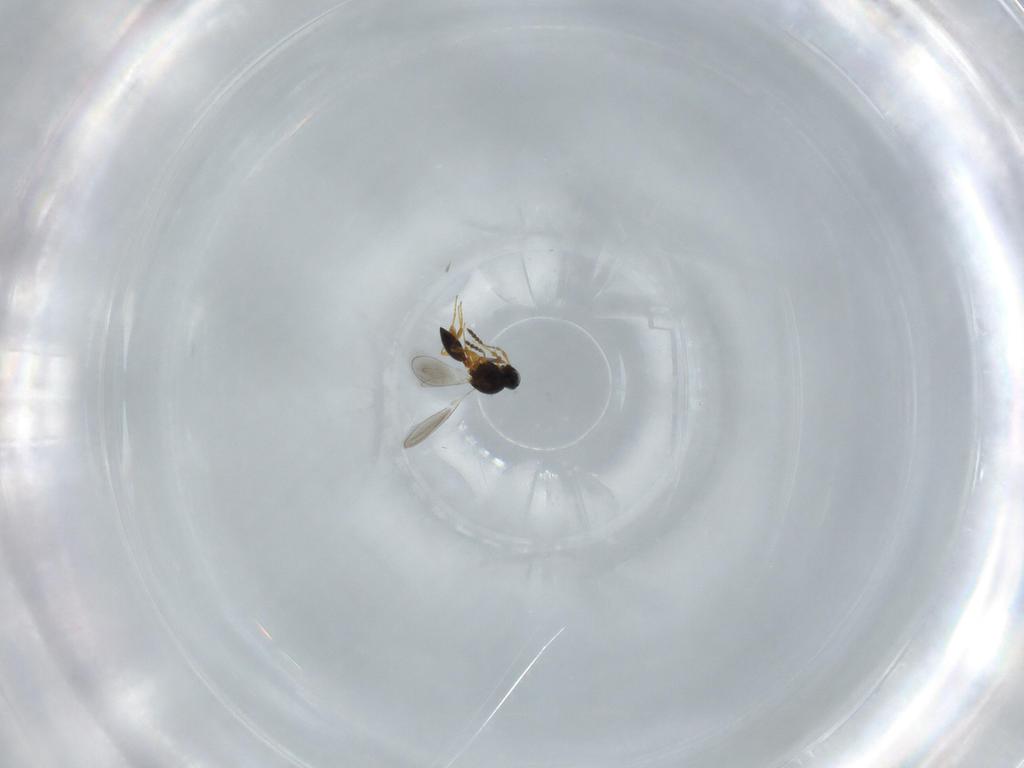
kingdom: Animalia
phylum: Arthropoda
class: Insecta
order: Hymenoptera
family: Platygastridae
